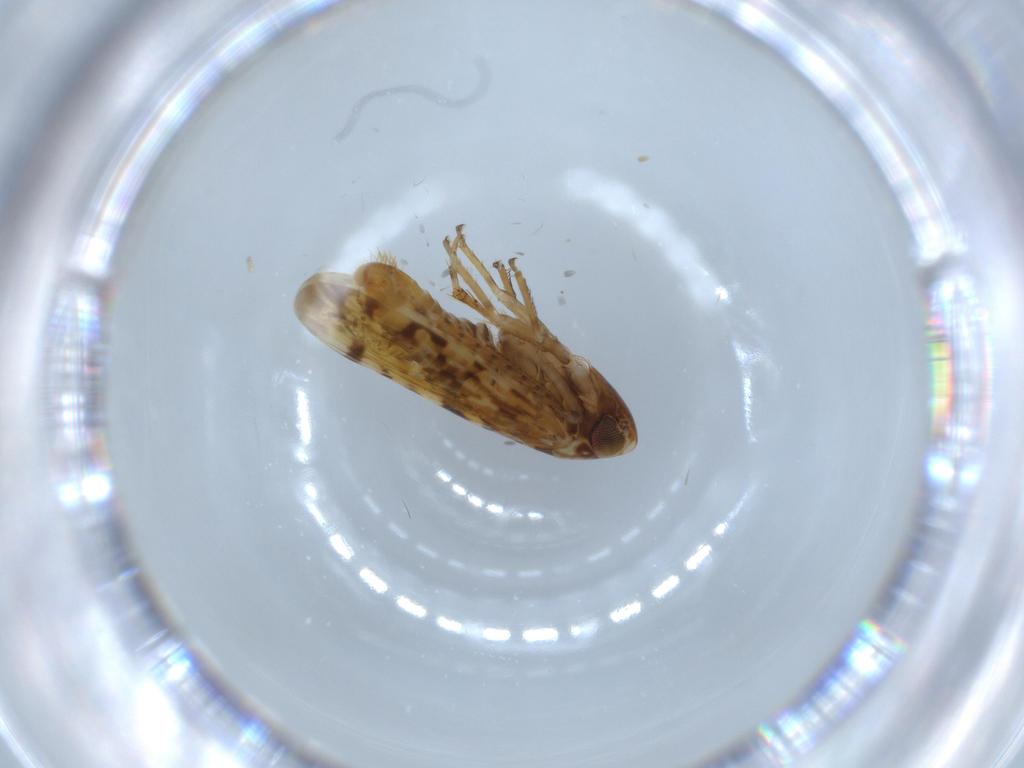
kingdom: Animalia
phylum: Arthropoda
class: Insecta
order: Hemiptera
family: Cicadellidae
